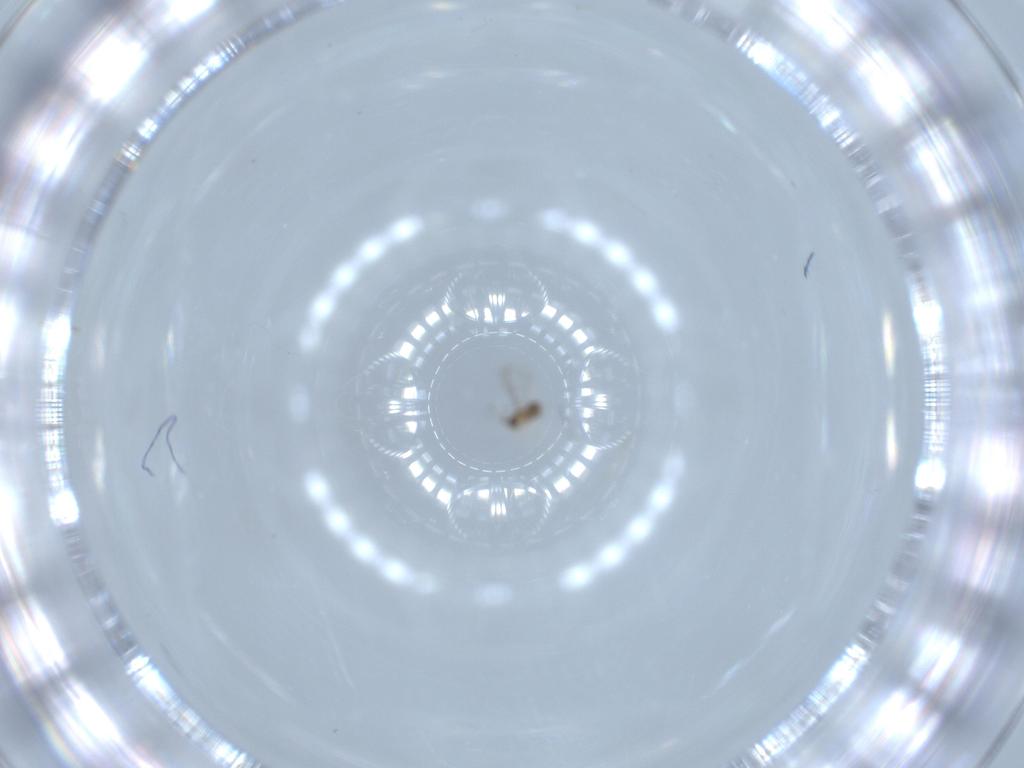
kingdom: Animalia
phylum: Arthropoda
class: Insecta
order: Hymenoptera
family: Mymaridae
